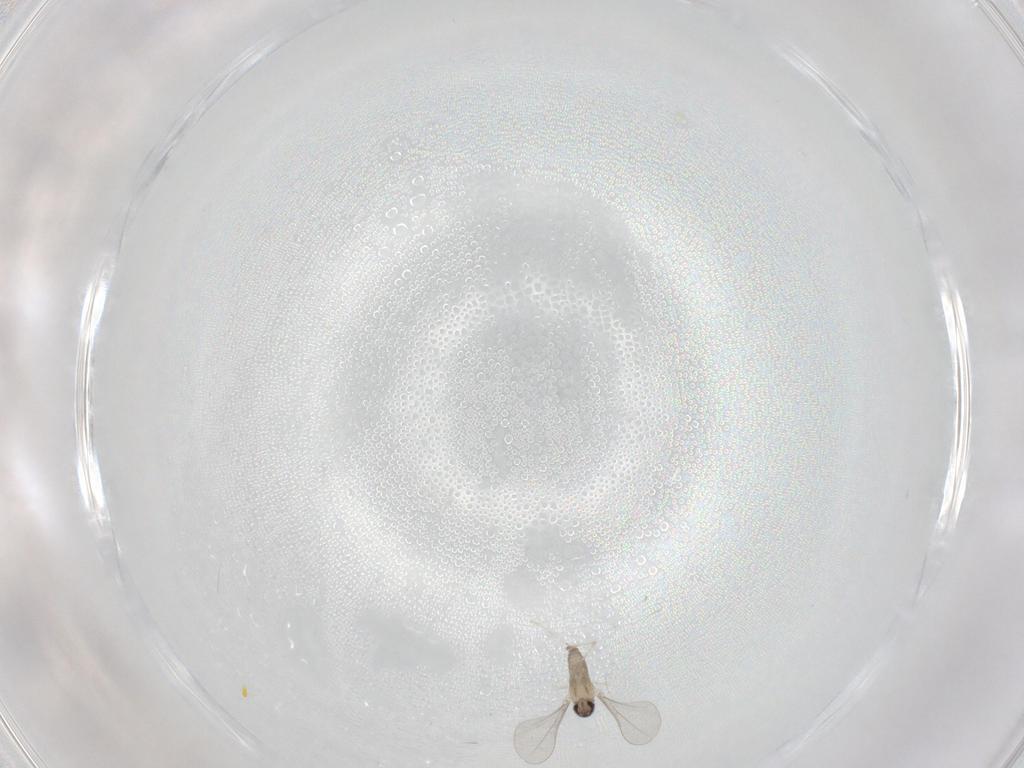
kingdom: Animalia
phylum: Arthropoda
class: Insecta
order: Diptera
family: Cecidomyiidae
